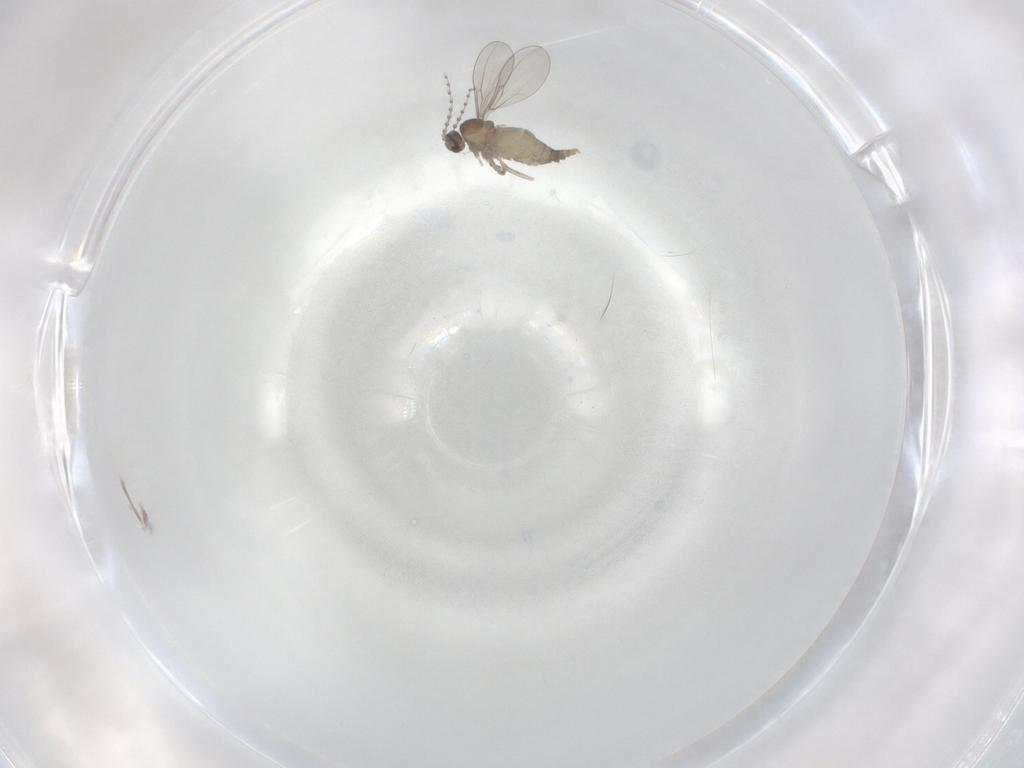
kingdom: Animalia
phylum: Arthropoda
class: Insecta
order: Diptera
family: Cecidomyiidae
